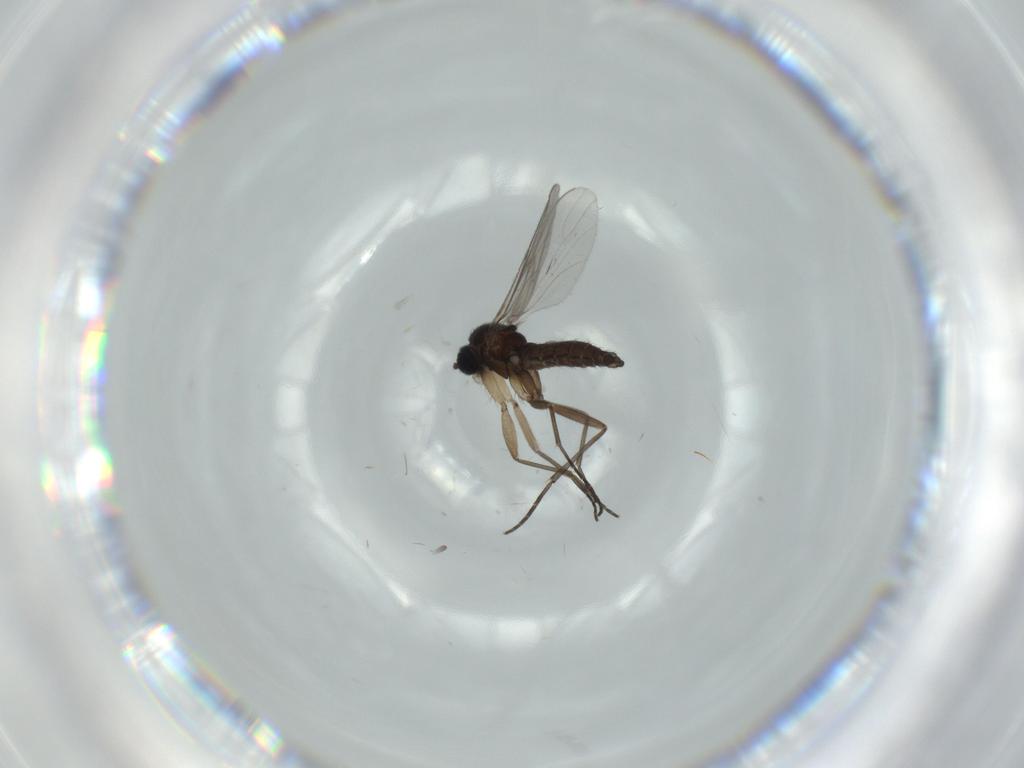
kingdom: Animalia
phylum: Arthropoda
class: Insecta
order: Diptera
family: Sciaridae
